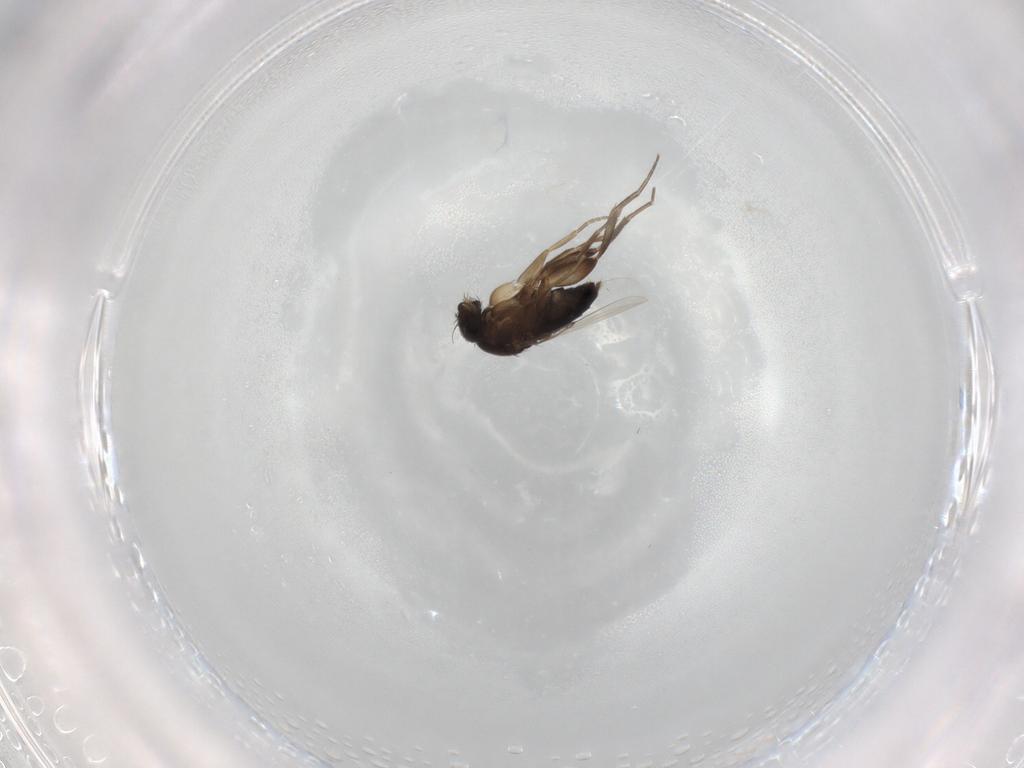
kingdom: Animalia
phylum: Arthropoda
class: Insecta
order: Diptera
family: Phoridae
